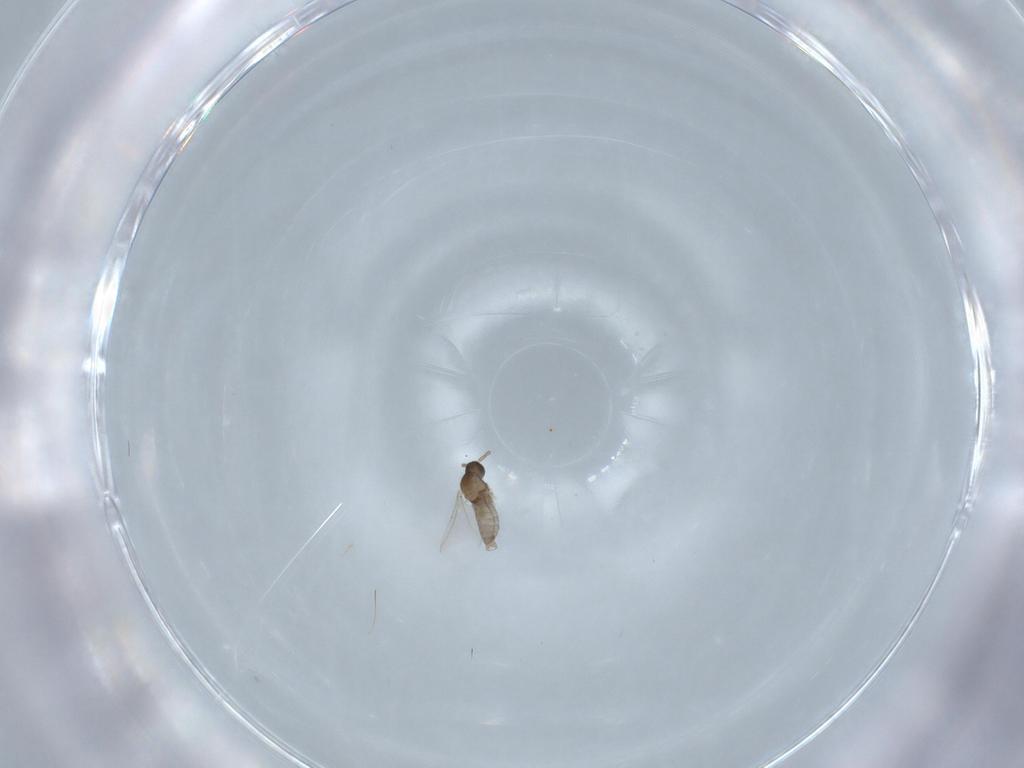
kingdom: Animalia
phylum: Arthropoda
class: Insecta
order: Diptera
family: Cecidomyiidae
